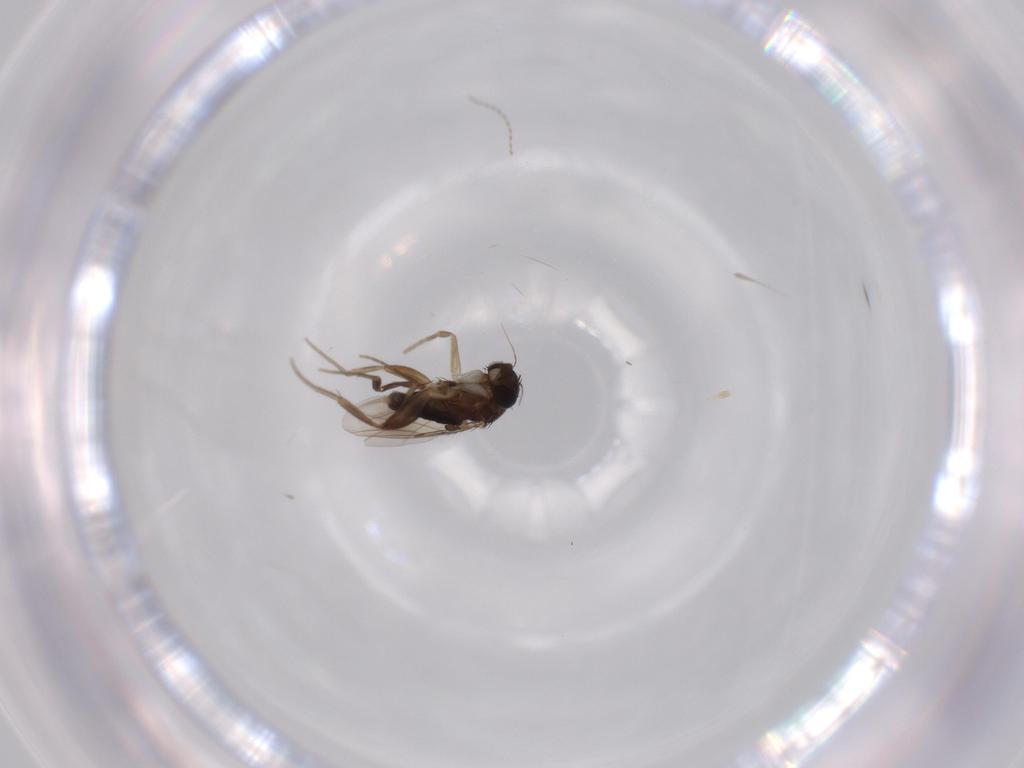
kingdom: Animalia
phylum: Arthropoda
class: Insecta
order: Diptera
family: Phoridae
